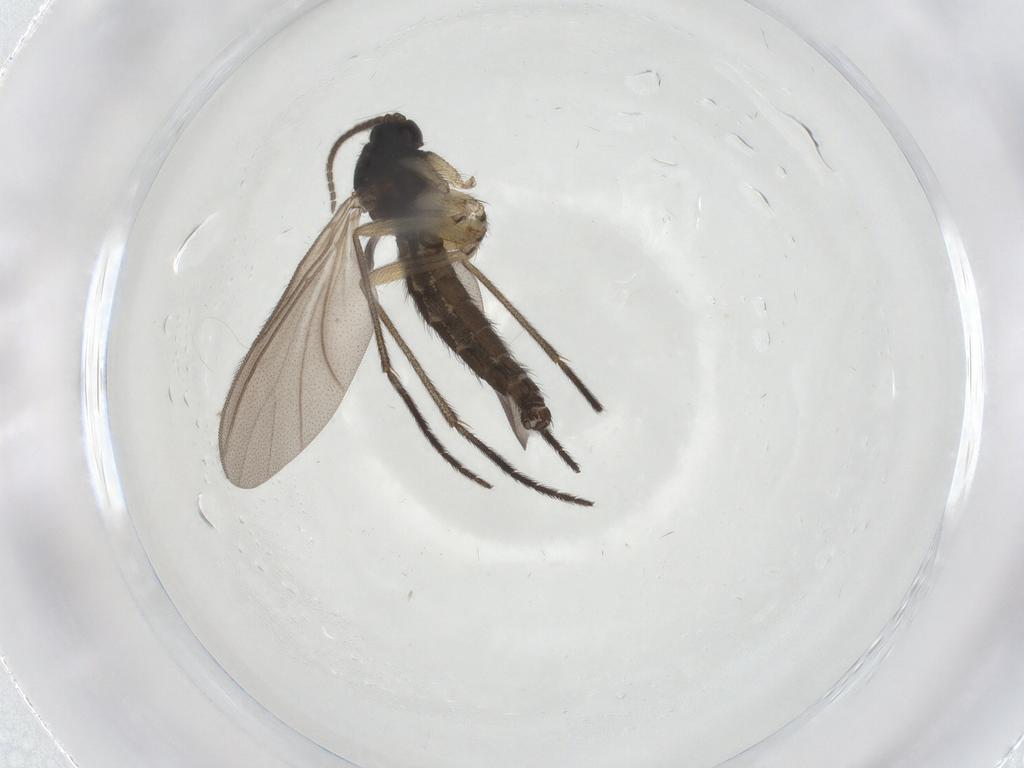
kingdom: Animalia
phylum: Arthropoda
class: Insecta
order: Diptera
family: Sciaridae
